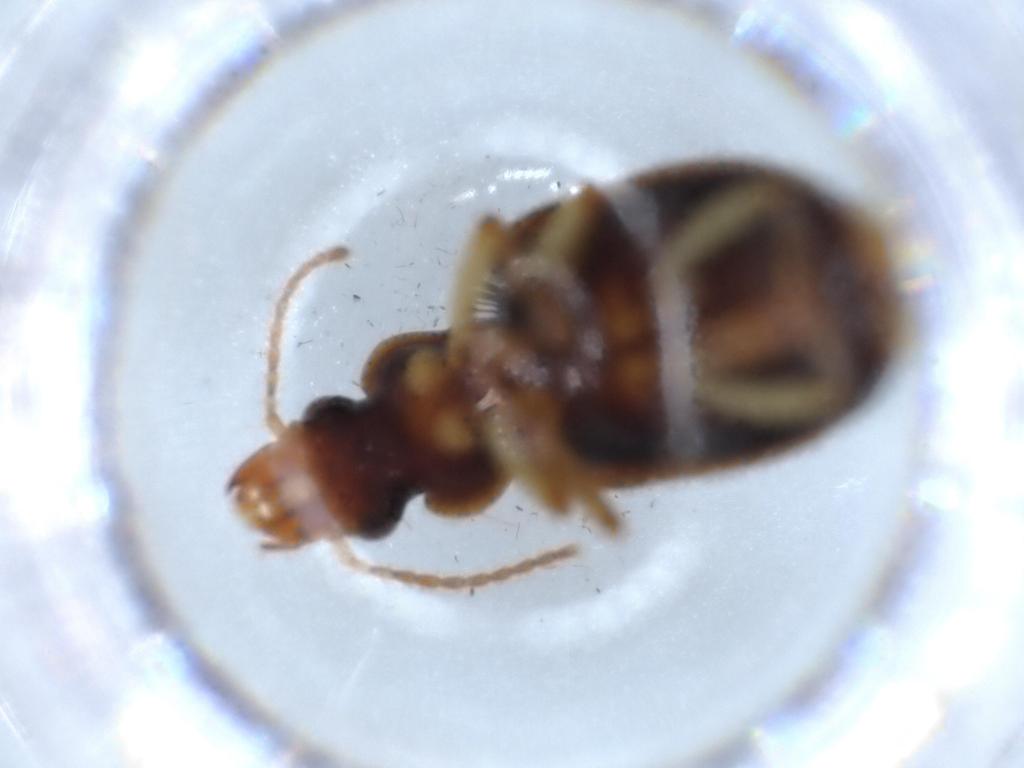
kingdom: Animalia
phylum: Arthropoda
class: Insecta
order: Coleoptera
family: Carabidae
